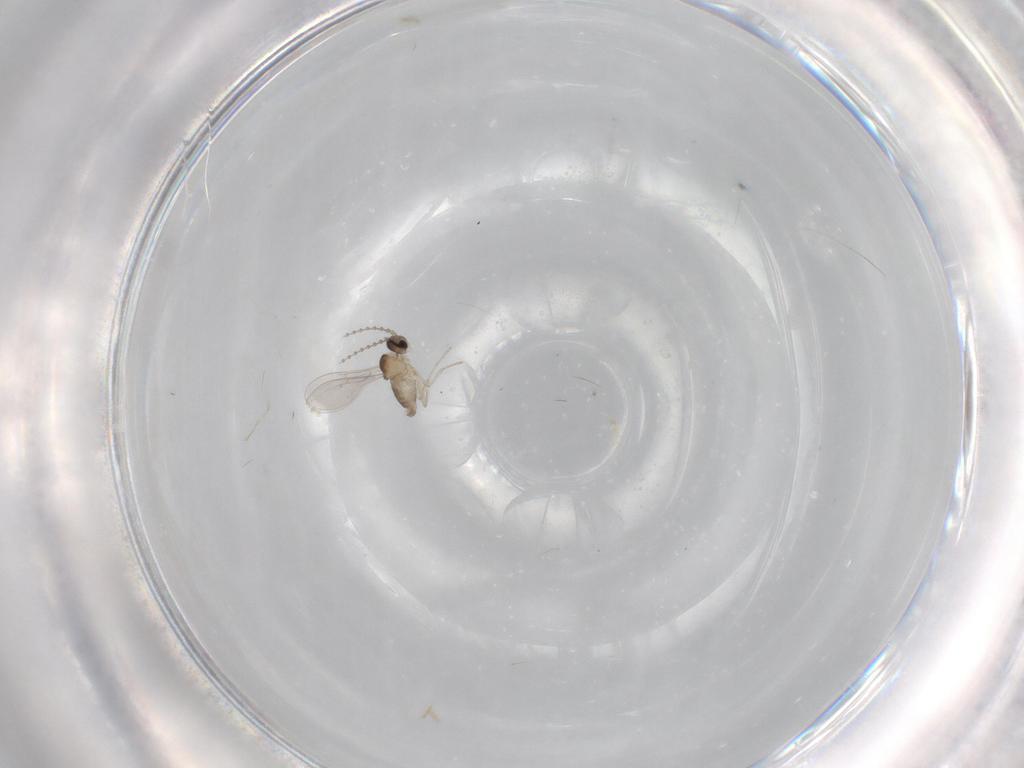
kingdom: Animalia
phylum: Arthropoda
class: Insecta
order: Diptera
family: Cecidomyiidae
